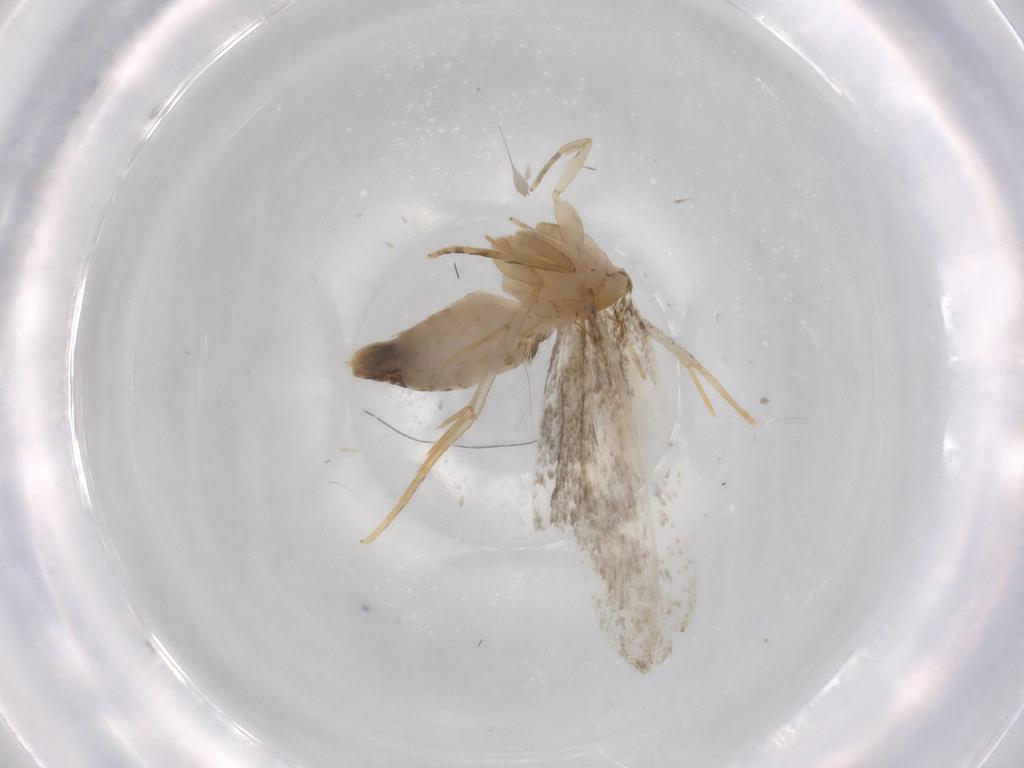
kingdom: Animalia
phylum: Arthropoda
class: Insecta
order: Lepidoptera
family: Tineidae
